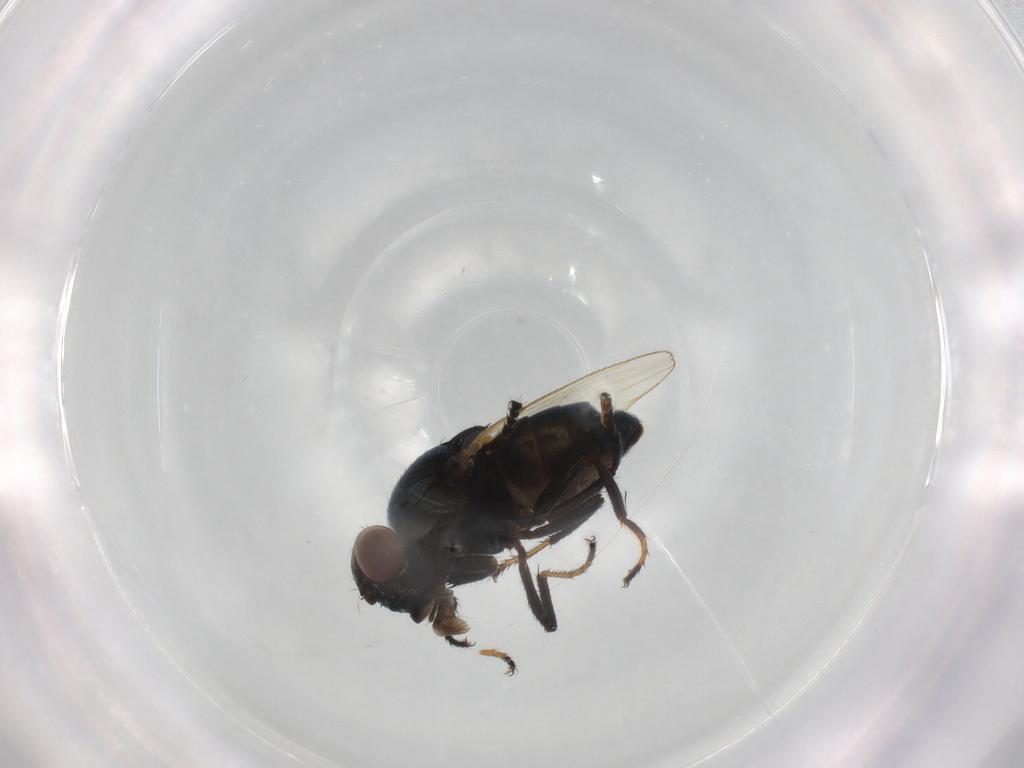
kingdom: Animalia
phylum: Arthropoda
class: Insecta
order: Diptera
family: Ephydridae
